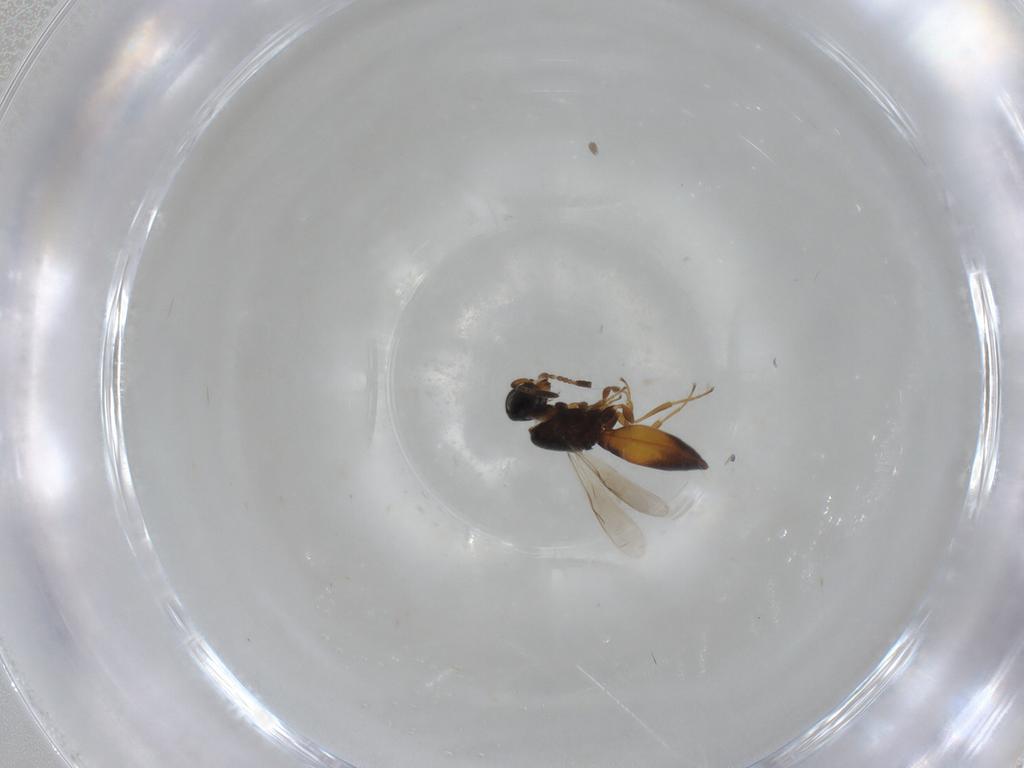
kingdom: Animalia
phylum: Arthropoda
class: Insecta
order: Hymenoptera
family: Scelionidae
